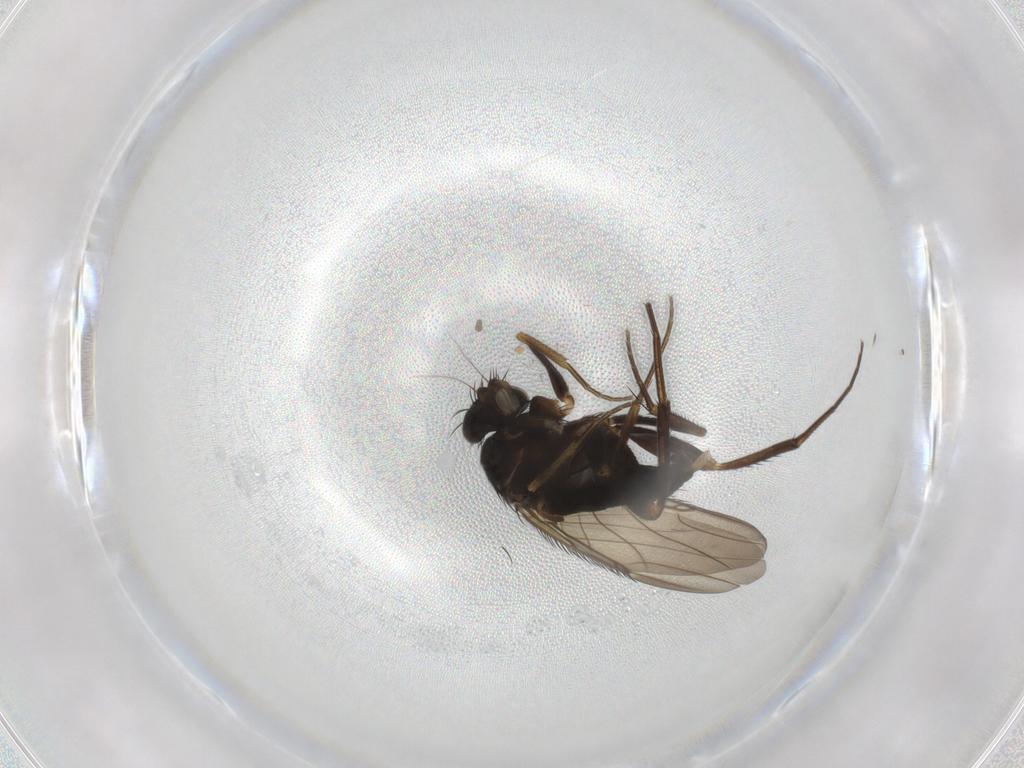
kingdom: Animalia
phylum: Arthropoda
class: Insecta
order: Diptera
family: Phoridae
